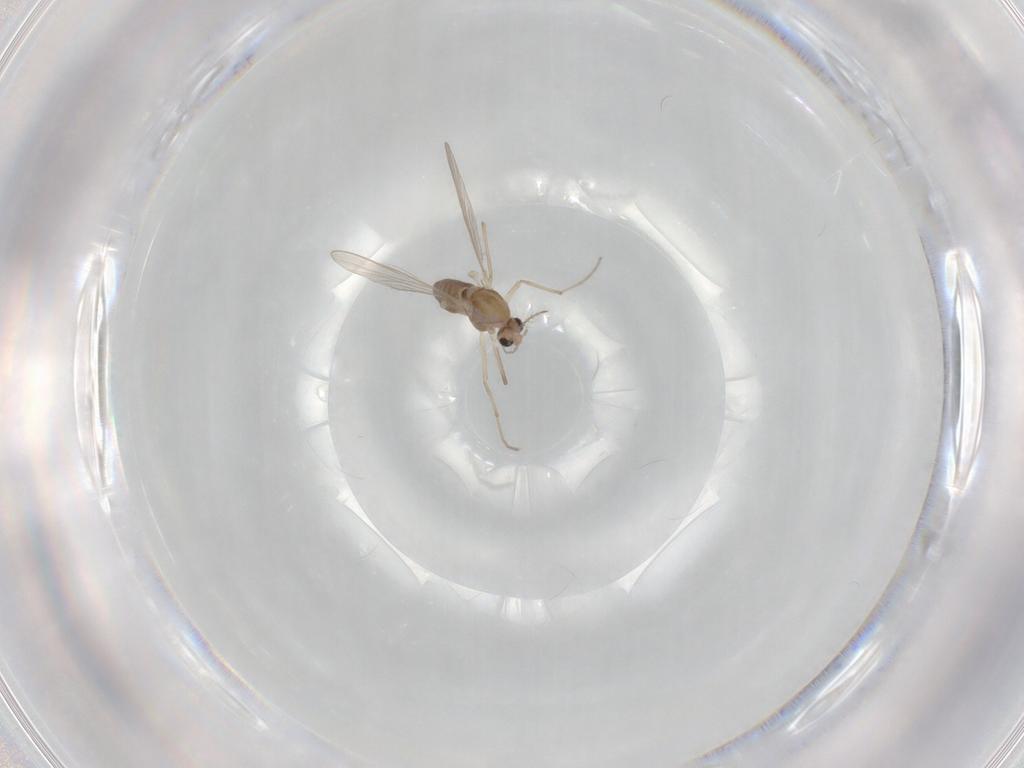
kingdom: Animalia
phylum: Arthropoda
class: Insecta
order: Diptera
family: Chironomidae
